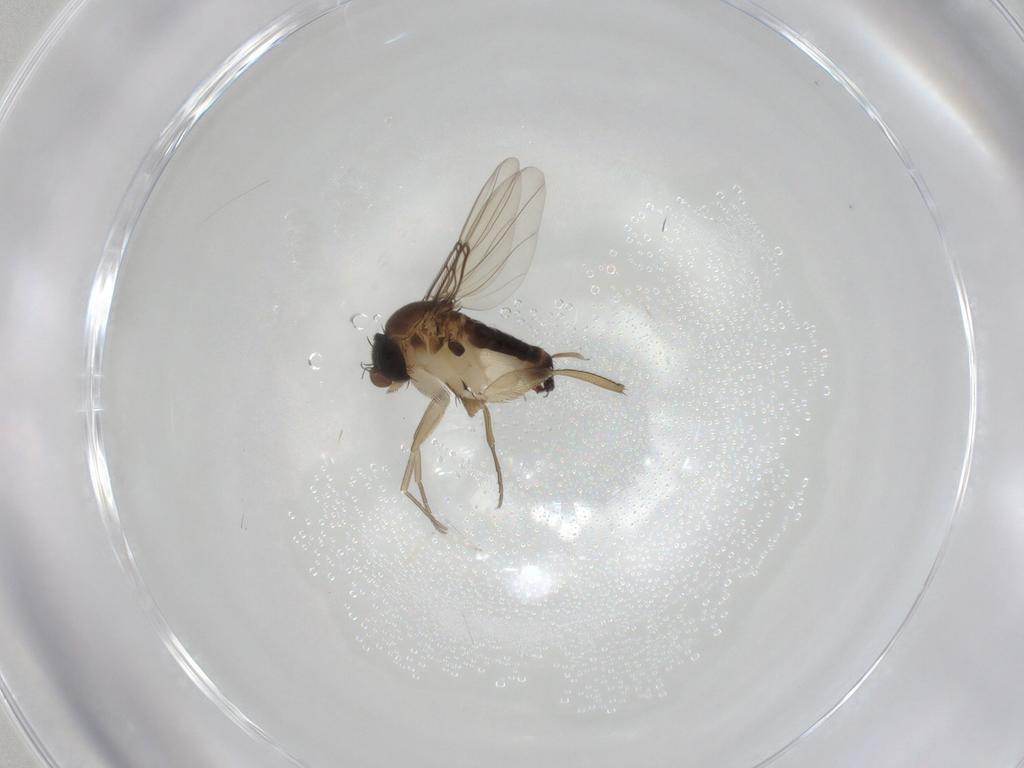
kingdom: Animalia
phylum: Arthropoda
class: Insecta
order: Diptera
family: Phoridae
